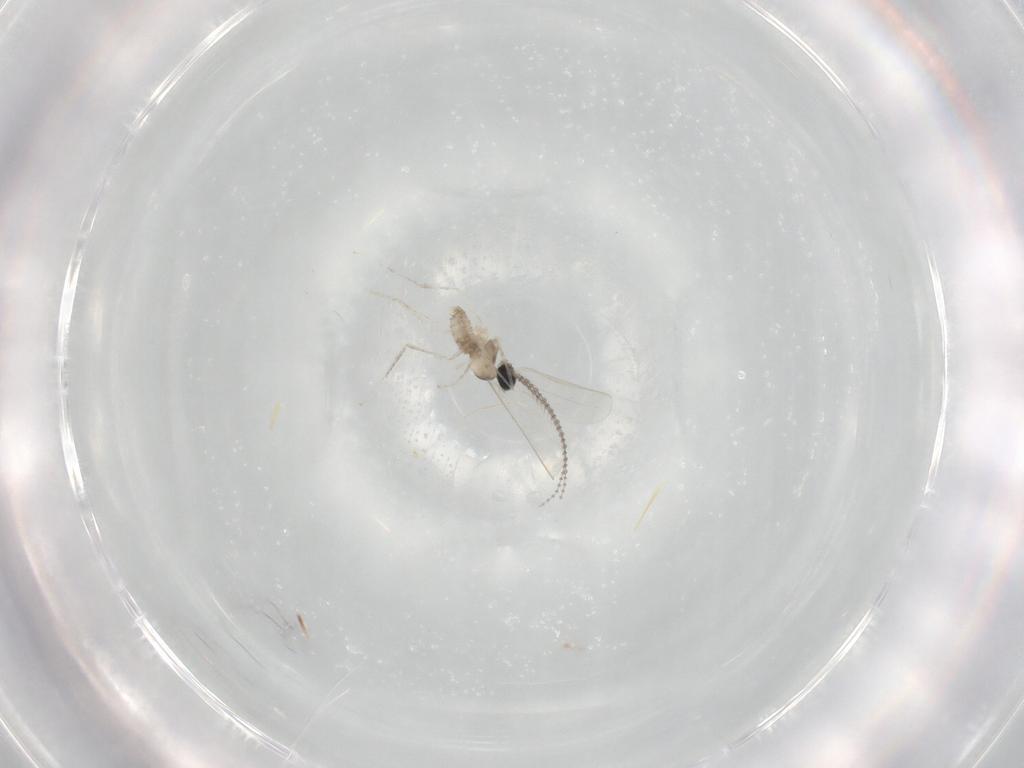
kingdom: Animalia
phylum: Arthropoda
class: Insecta
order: Diptera
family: Cecidomyiidae
